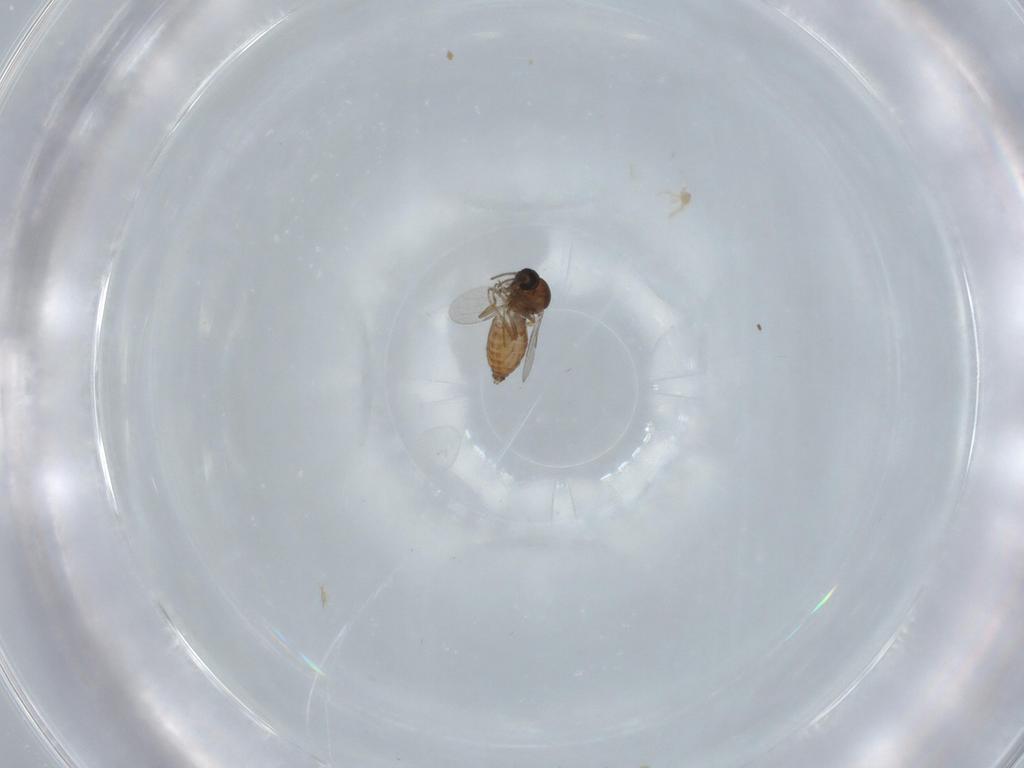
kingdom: Animalia
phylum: Arthropoda
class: Insecta
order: Diptera
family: Ceratopogonidae
